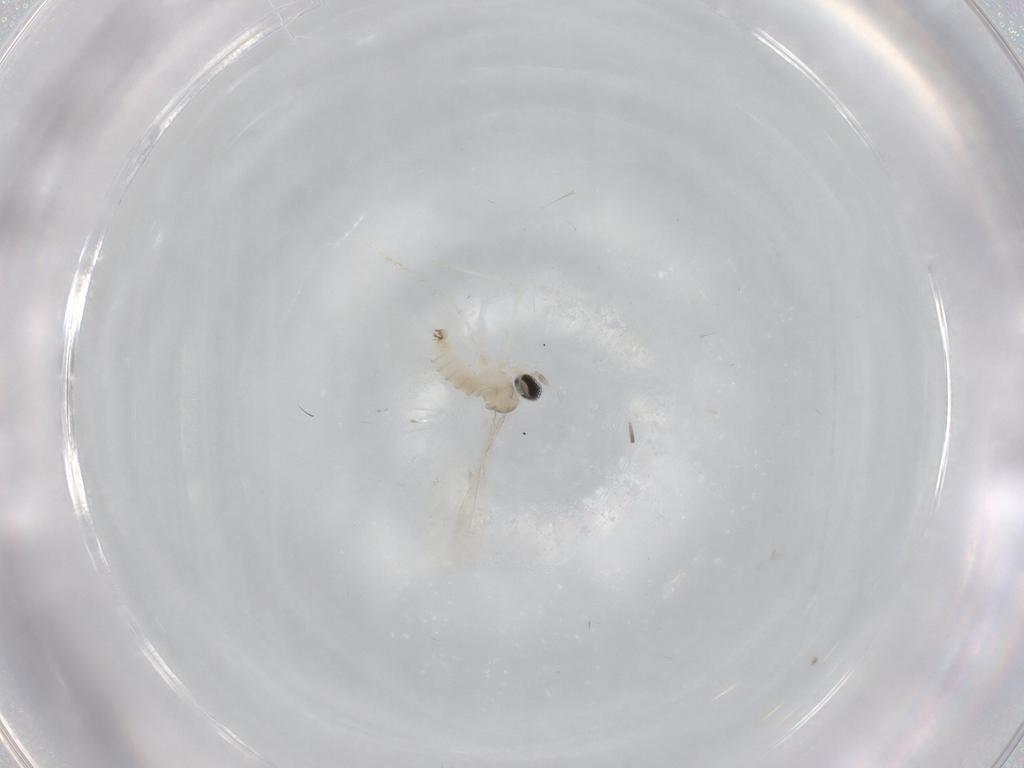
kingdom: Animalia
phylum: Arthropoda
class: Insecta
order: Diptera
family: Cecidomyiidae
